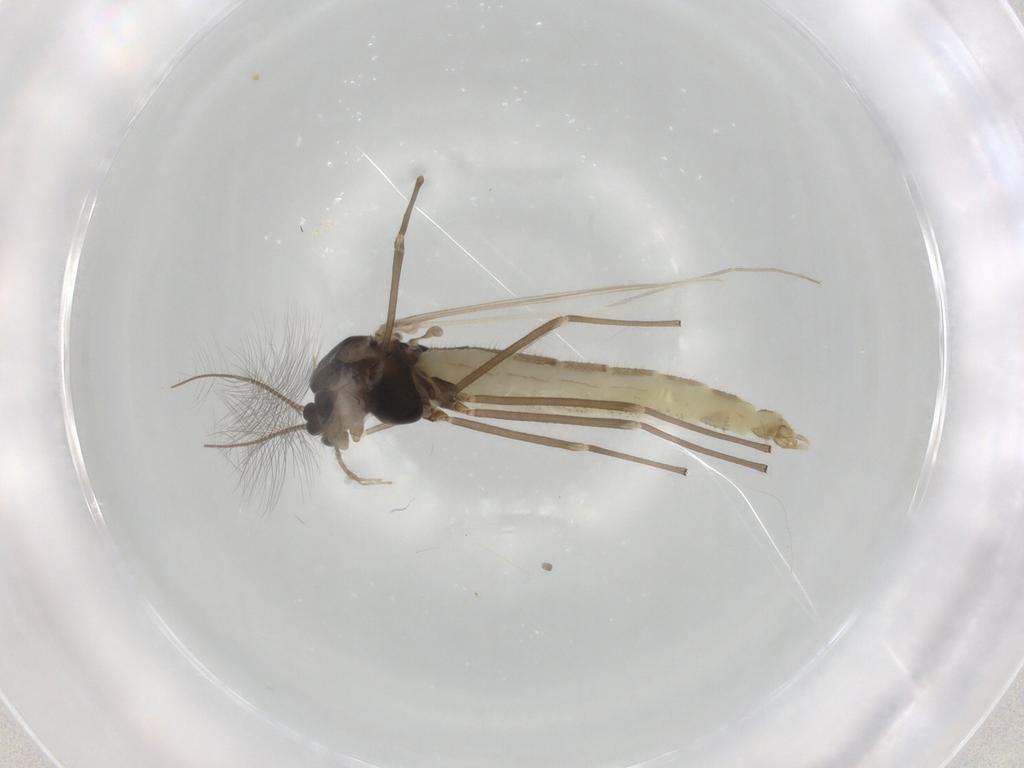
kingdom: Animalia
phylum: Arthropoda
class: Insecta
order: Diptera
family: Chironomidae
